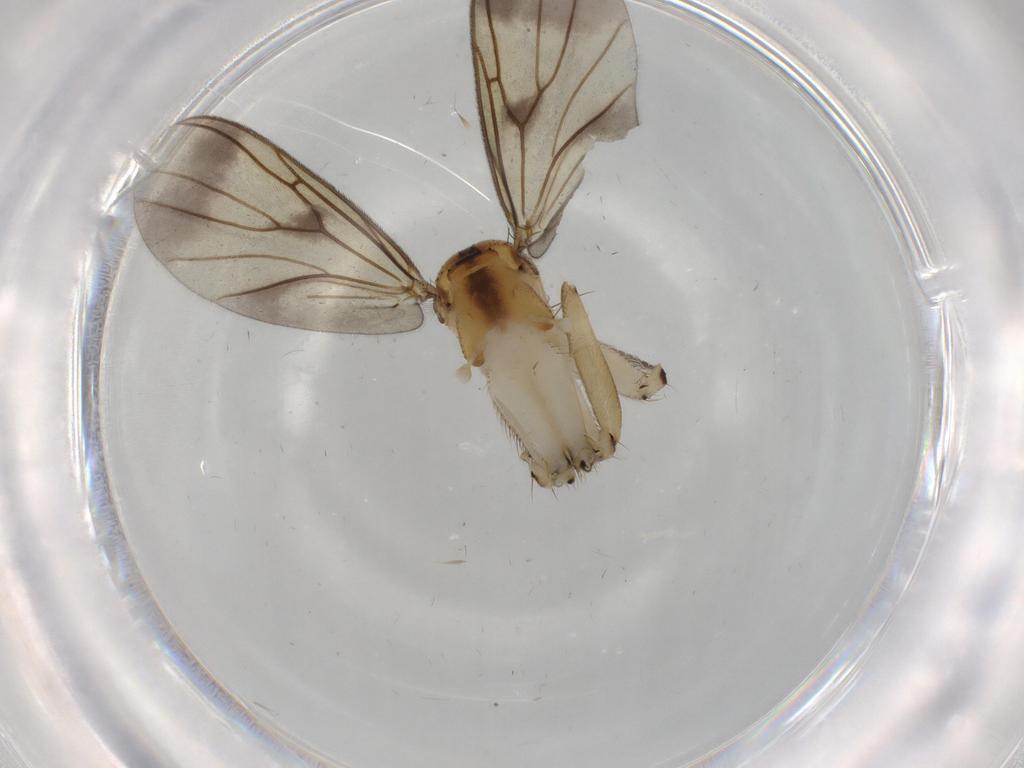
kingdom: Animalia
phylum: Arthropoda
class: Insecta
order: Diptera
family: Mycetophilidae
